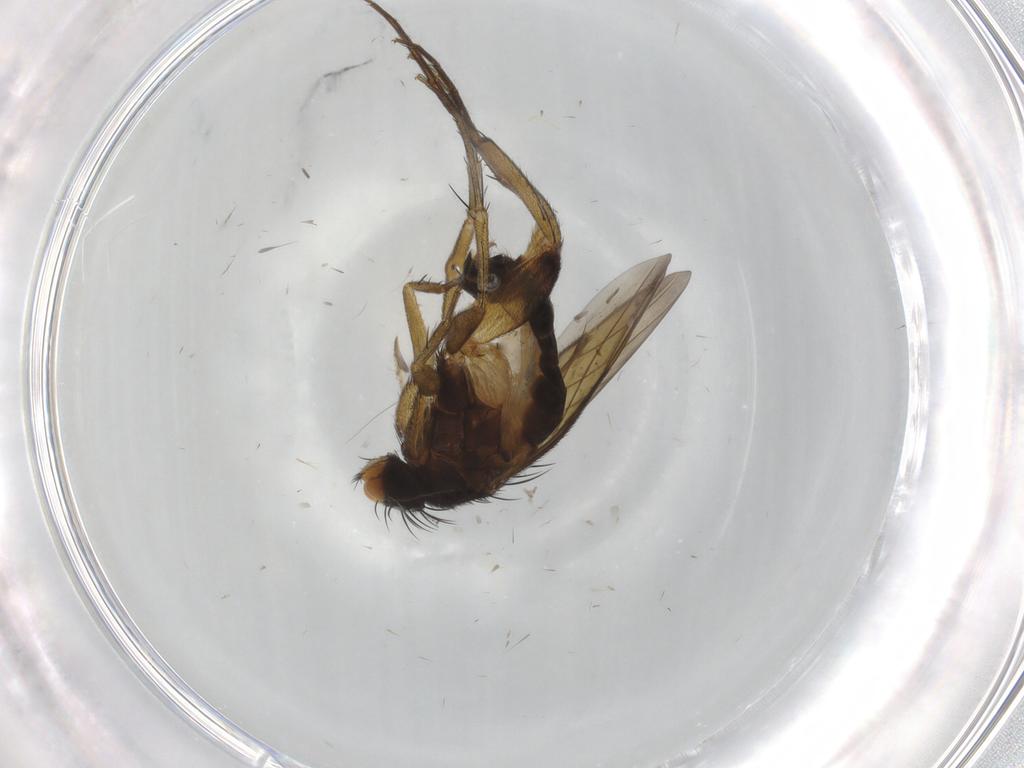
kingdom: Animalia
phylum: Arthropoda
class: Insecta
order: Diptera
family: Phoridae
